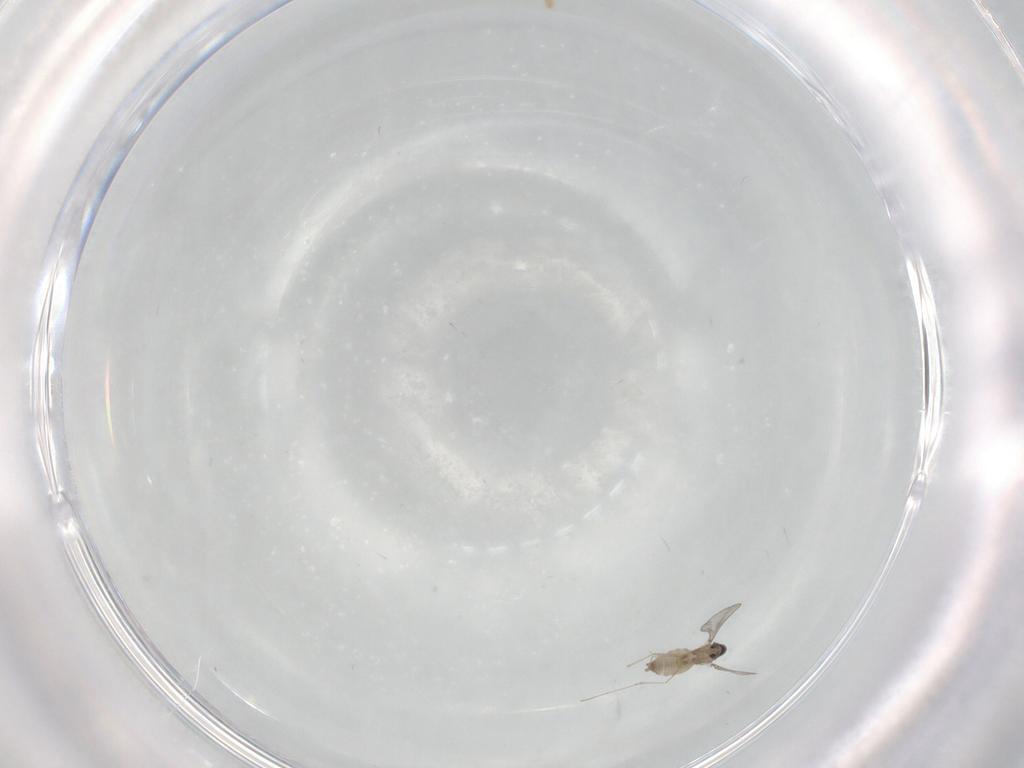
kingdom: Animalia
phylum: Arthropoda
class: Insecta
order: Diptera
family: Cecidomyiidae
